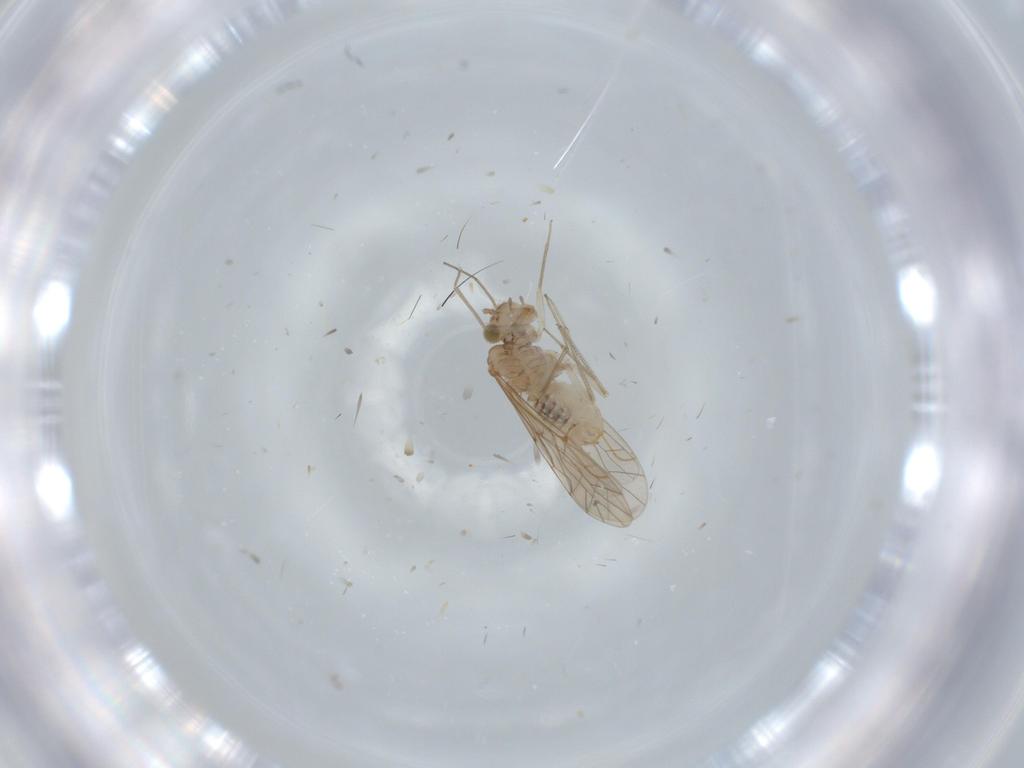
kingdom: Animalia
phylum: Arthropoda
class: Insecta
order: Psocodea
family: Lachesillidae
